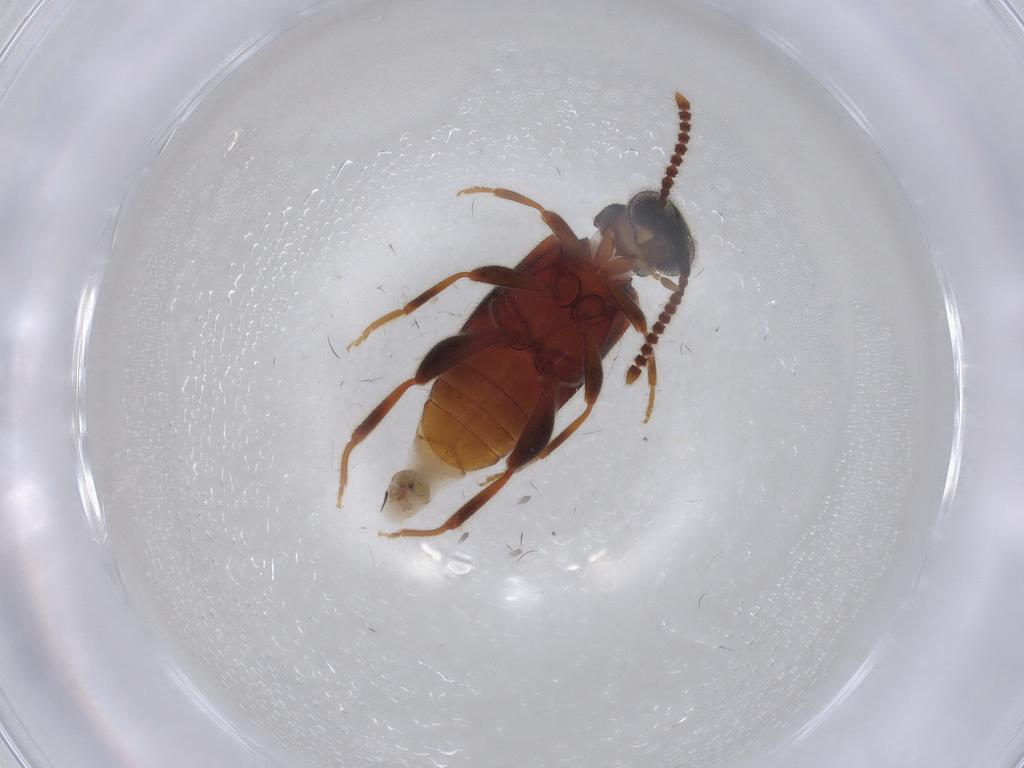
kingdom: Animalia
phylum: Arthropoda
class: Insecta
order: Coleoptera
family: Aderidae
